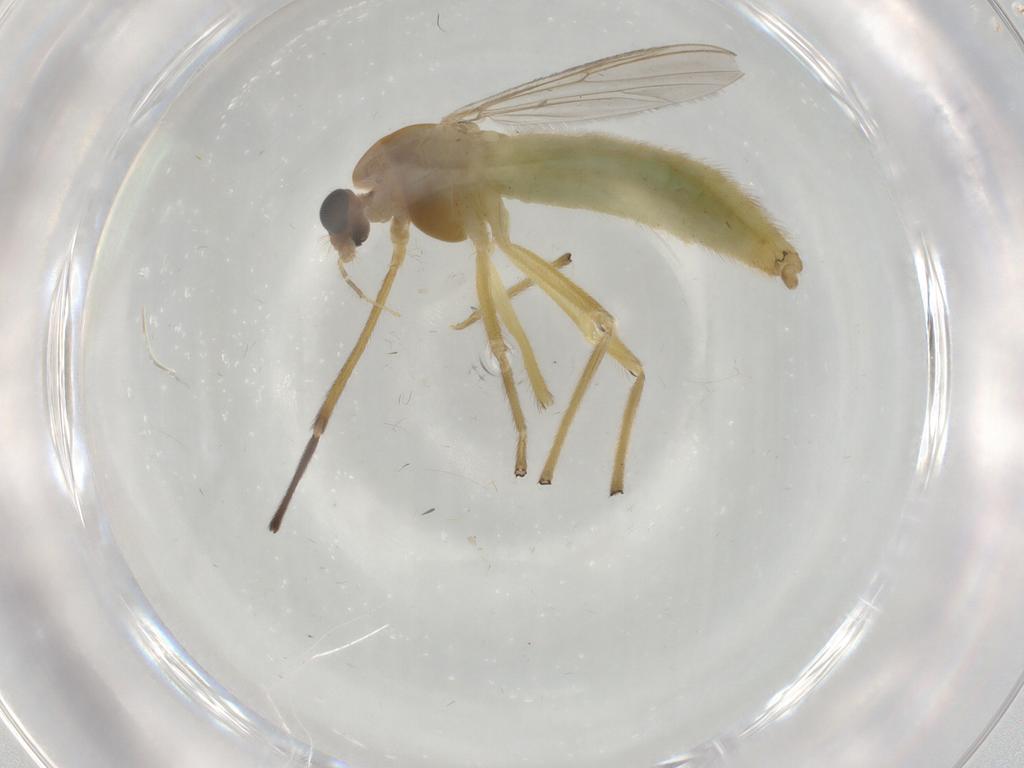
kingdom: Animalia
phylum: Arthropoda
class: Insecta
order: Diptera
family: Chironomidae
